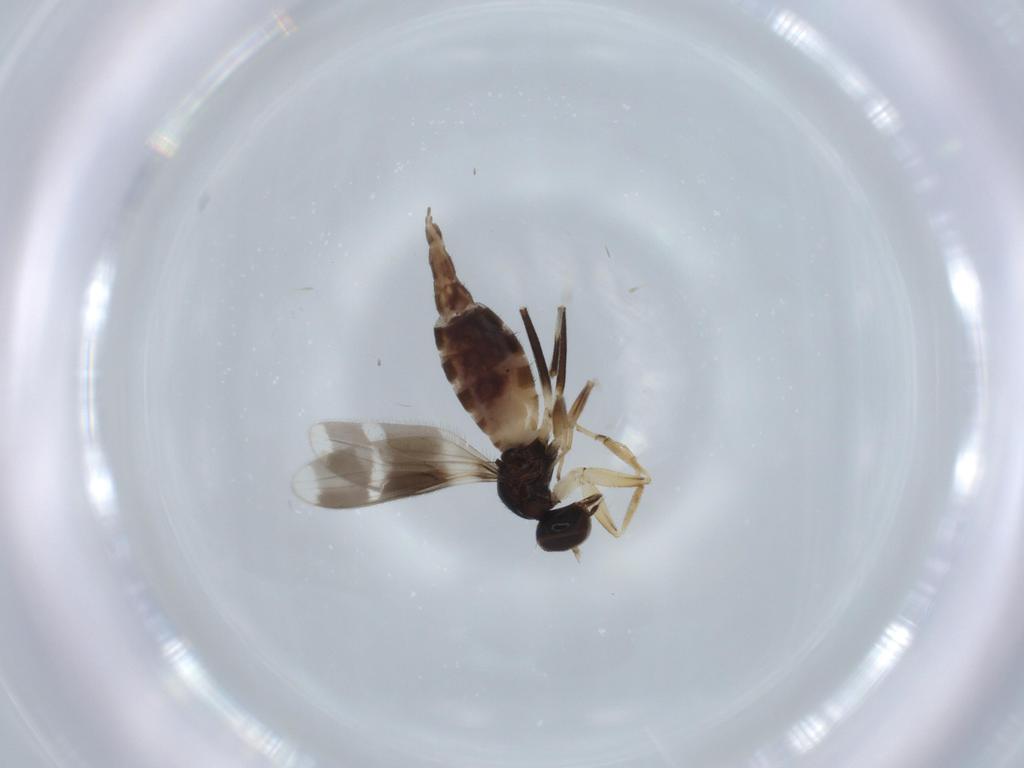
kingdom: Animalia
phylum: Arthropoda
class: Insecta
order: Diptera
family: Hybotidae
